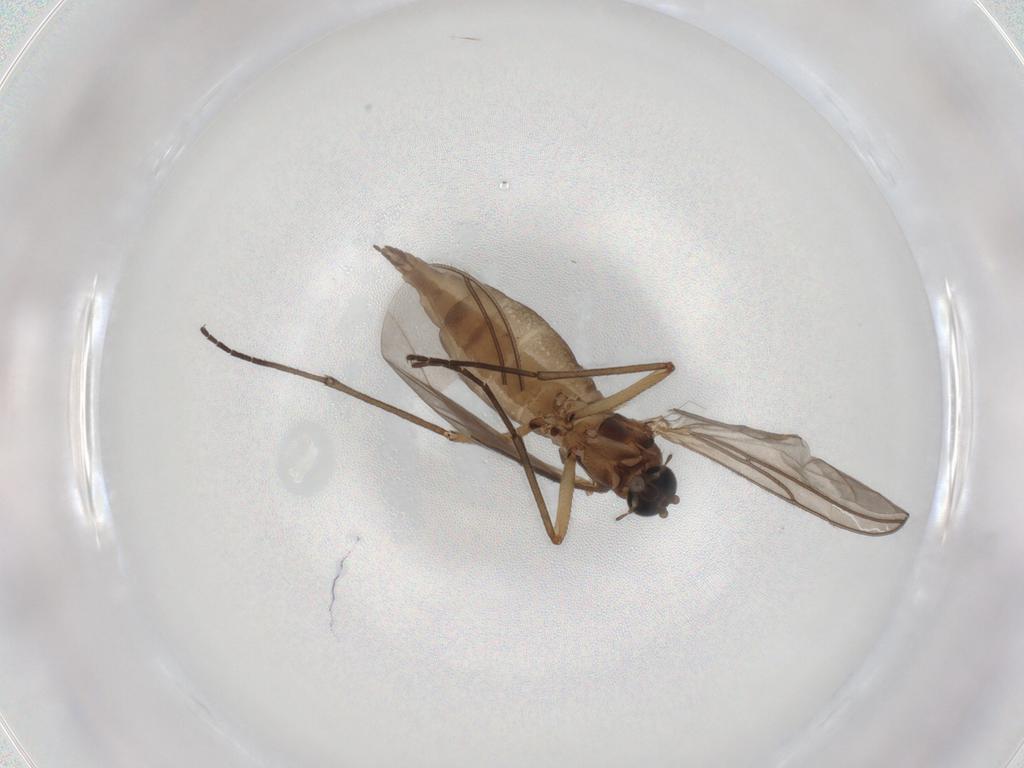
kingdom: Animalia
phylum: Arthropoda
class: Insecta
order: Diptera
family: Sciaridae
